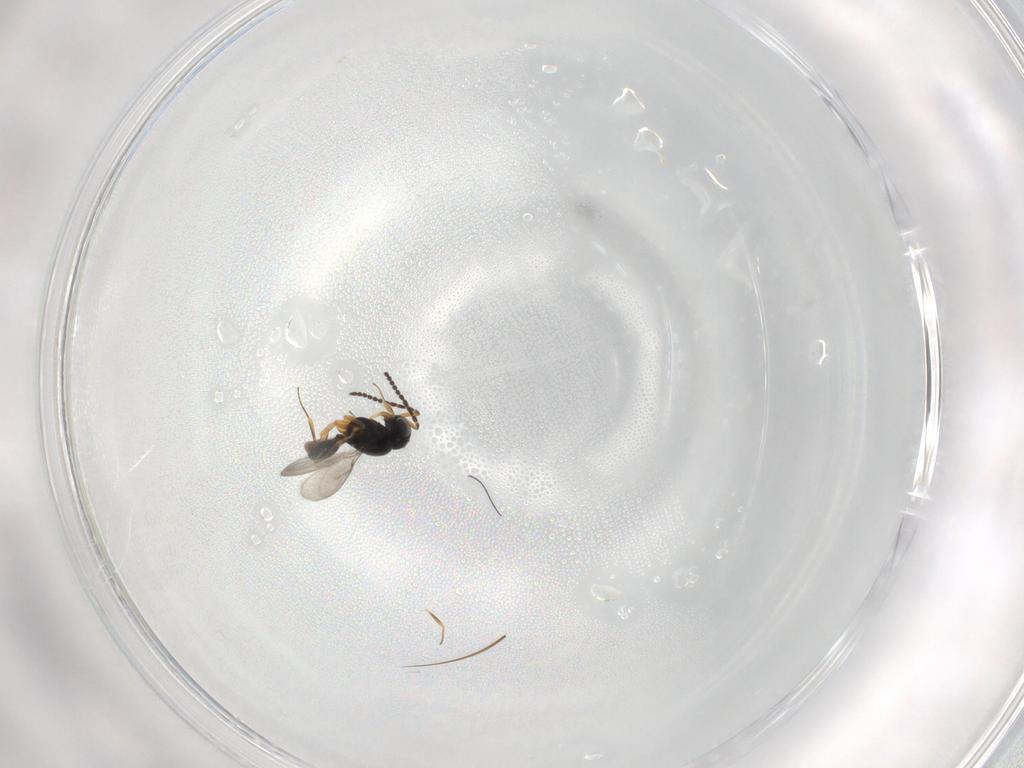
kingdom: Animalia
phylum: Arthropoda
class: Insecta
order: Hymenoptera
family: Scelionidae
